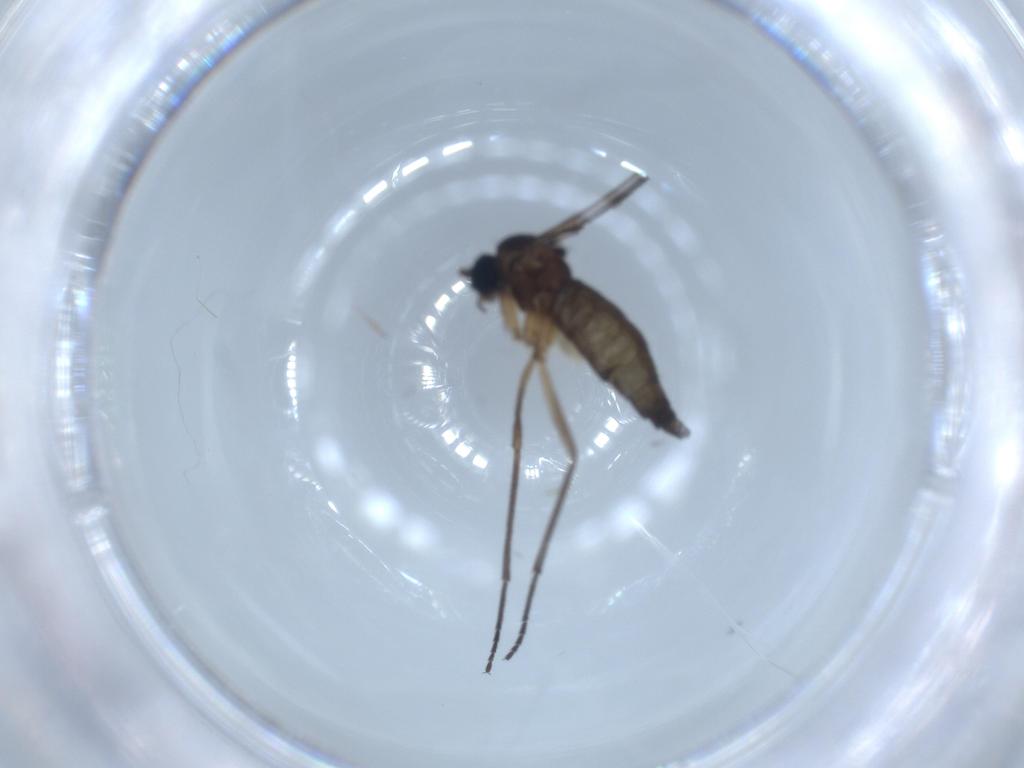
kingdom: Animalia
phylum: Arthropoda
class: Insecta
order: Diptera
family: Sciaridae
